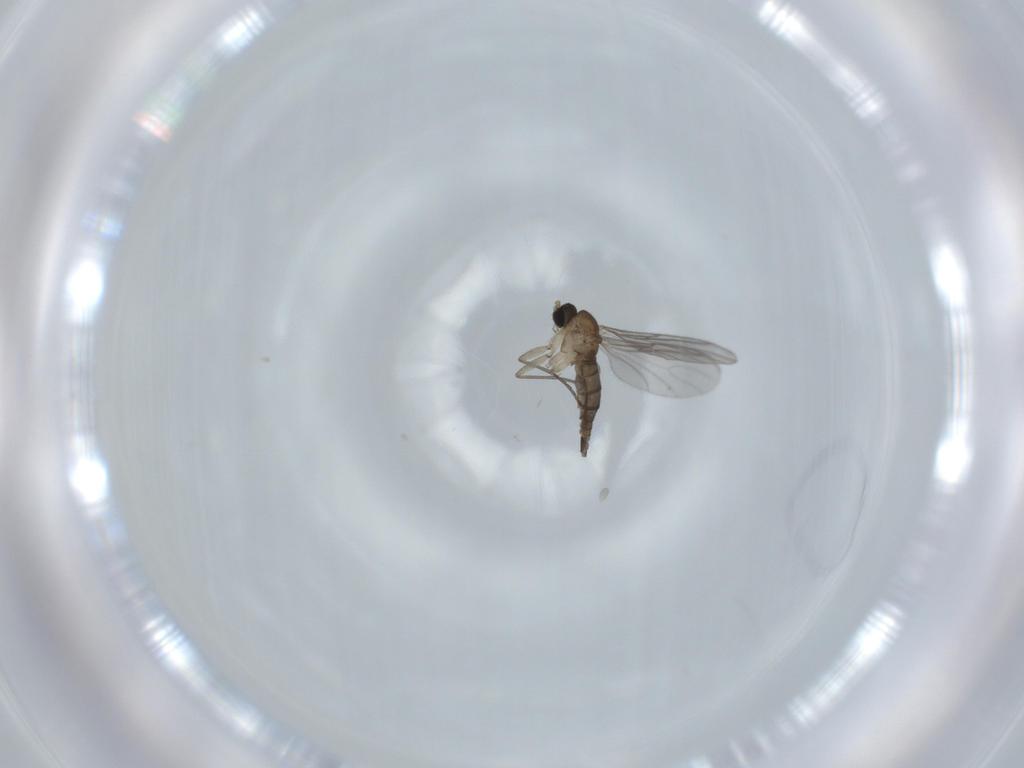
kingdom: Animalia
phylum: Arthropoda
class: Insecta
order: Diptera
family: Sciaridae
